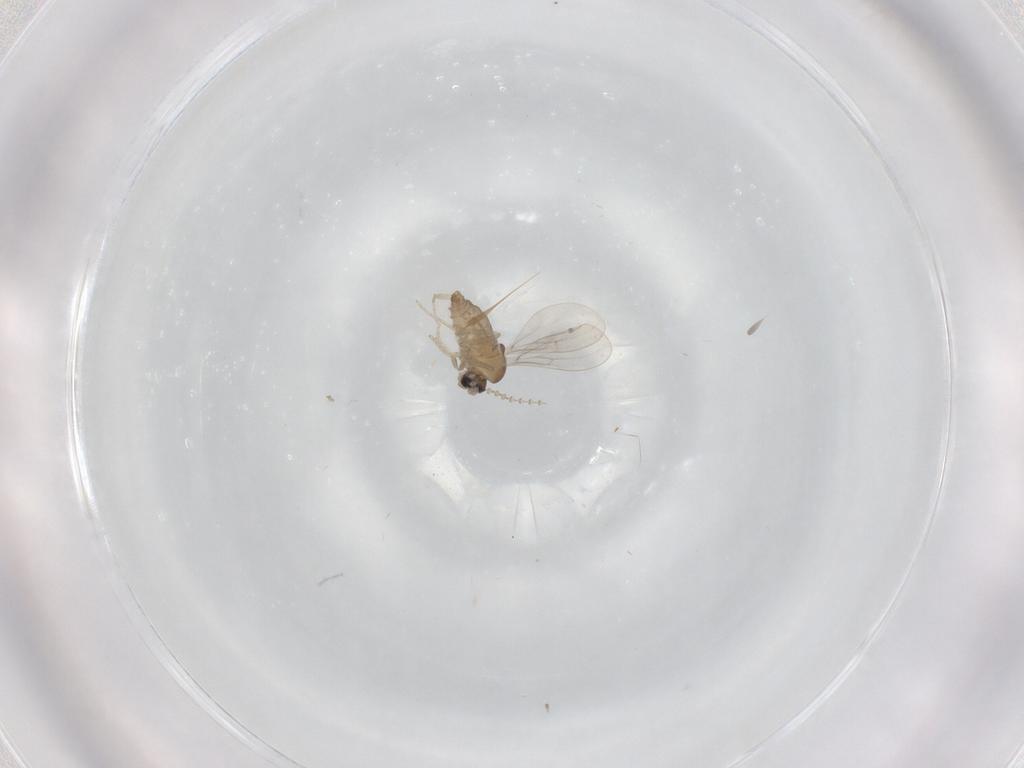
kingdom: Animalia
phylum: Arthropoda
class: Insecta
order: Diptera
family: Cecidomyiidae
